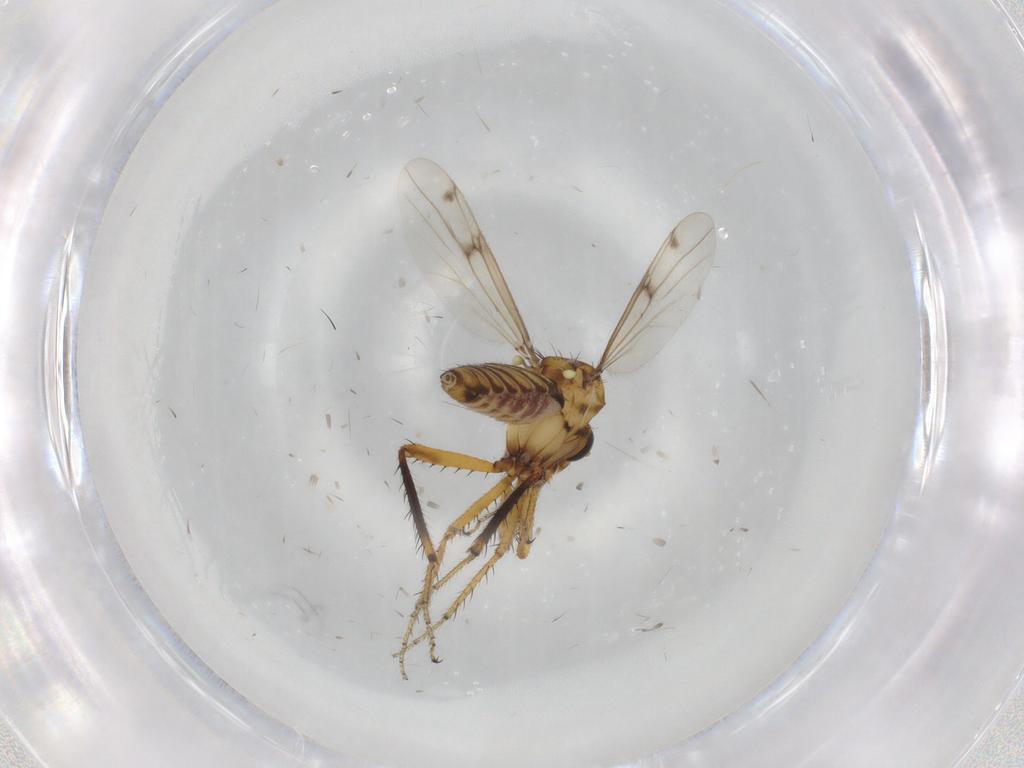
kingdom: Animalia
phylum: Arthropoda
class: Insecta
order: Diptera
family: Ceratopogonidae
